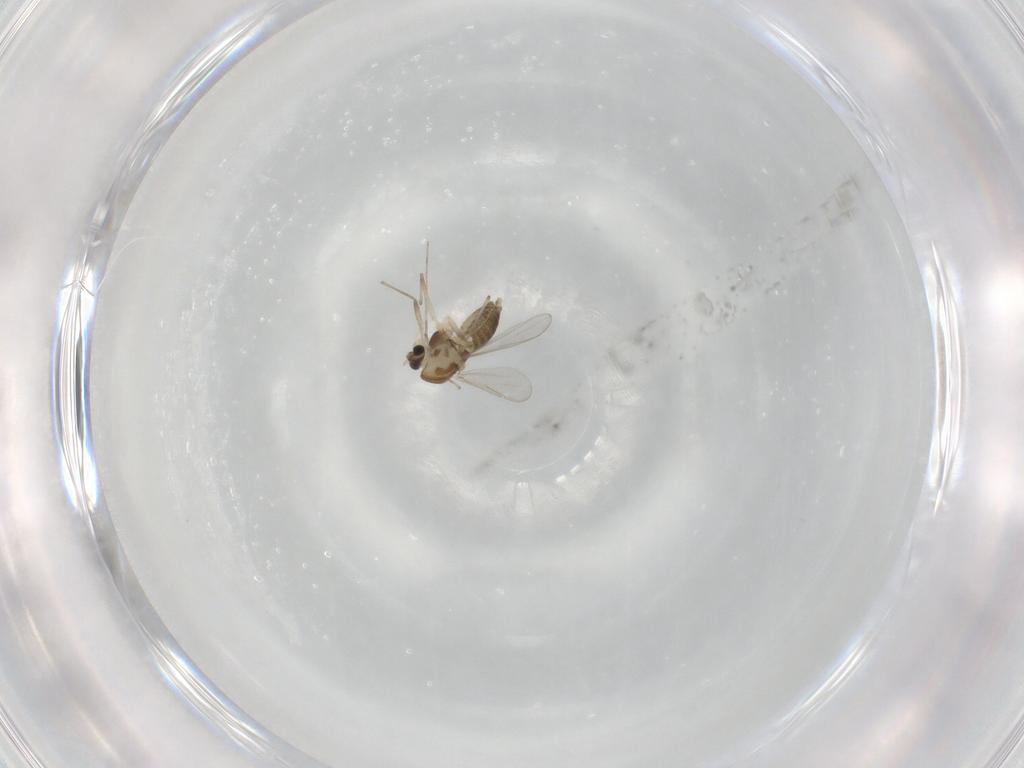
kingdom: Animalia
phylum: Arthropoda
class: Insecta
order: Diptera
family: Chironomidae
